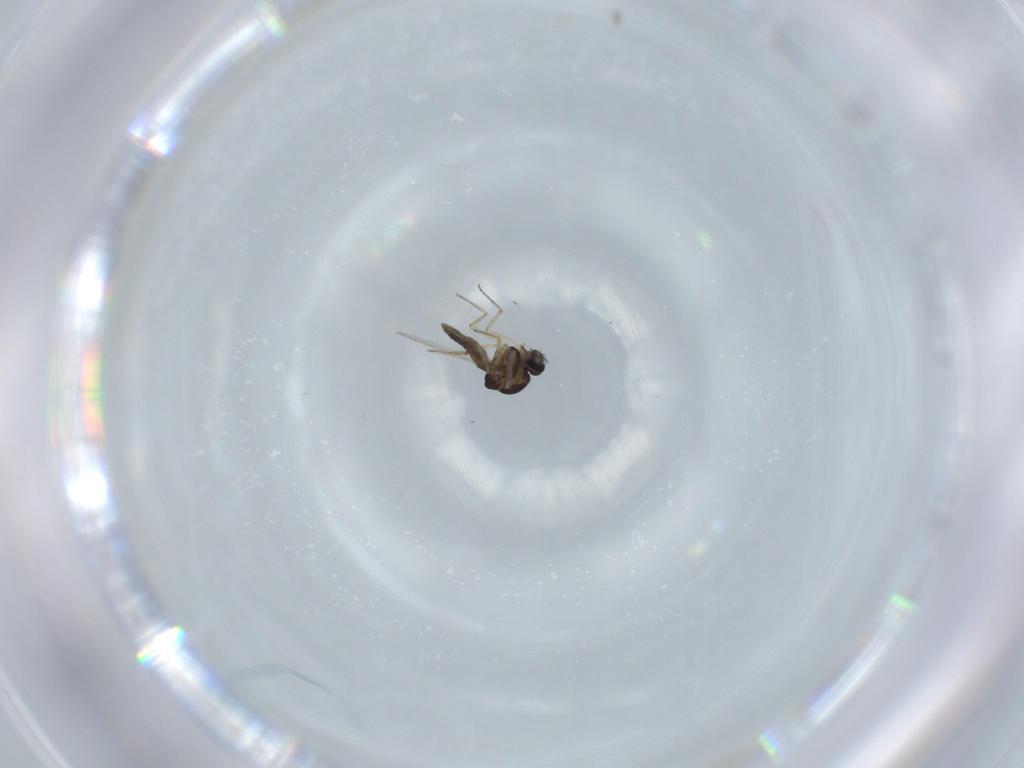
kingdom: Animalia
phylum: Arthropoda
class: Insecta
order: Diptera
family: Ceratopogonidae
